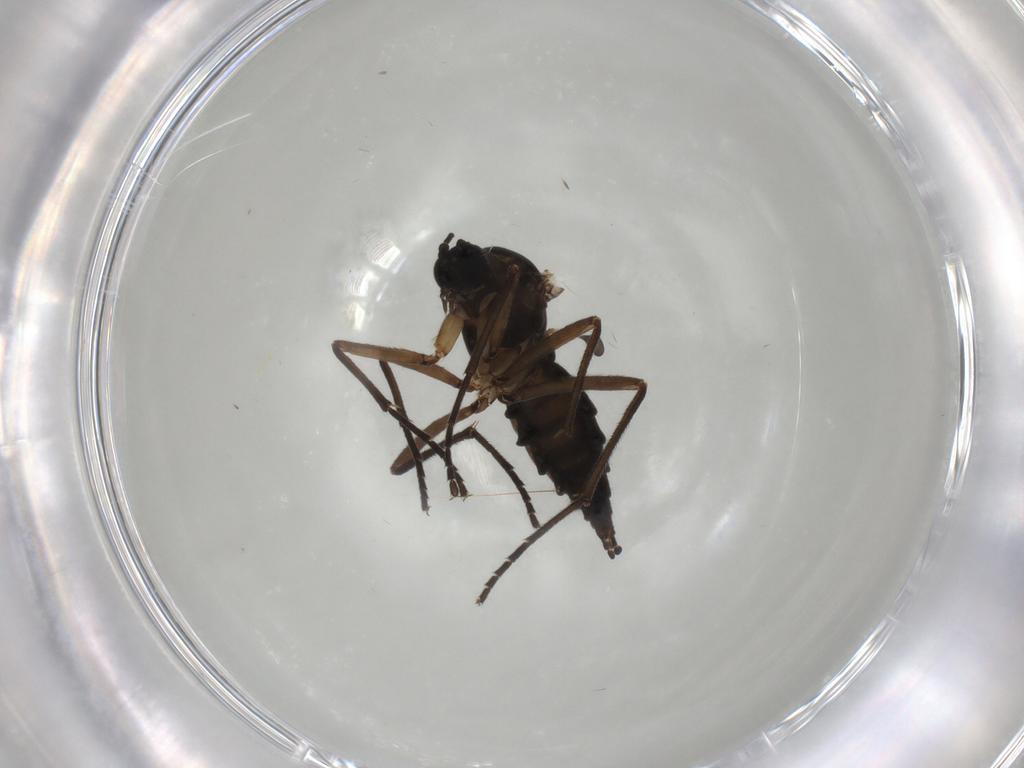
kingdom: Animalia
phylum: Arthropoda
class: Insecta
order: Diptera
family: Sciaridae
